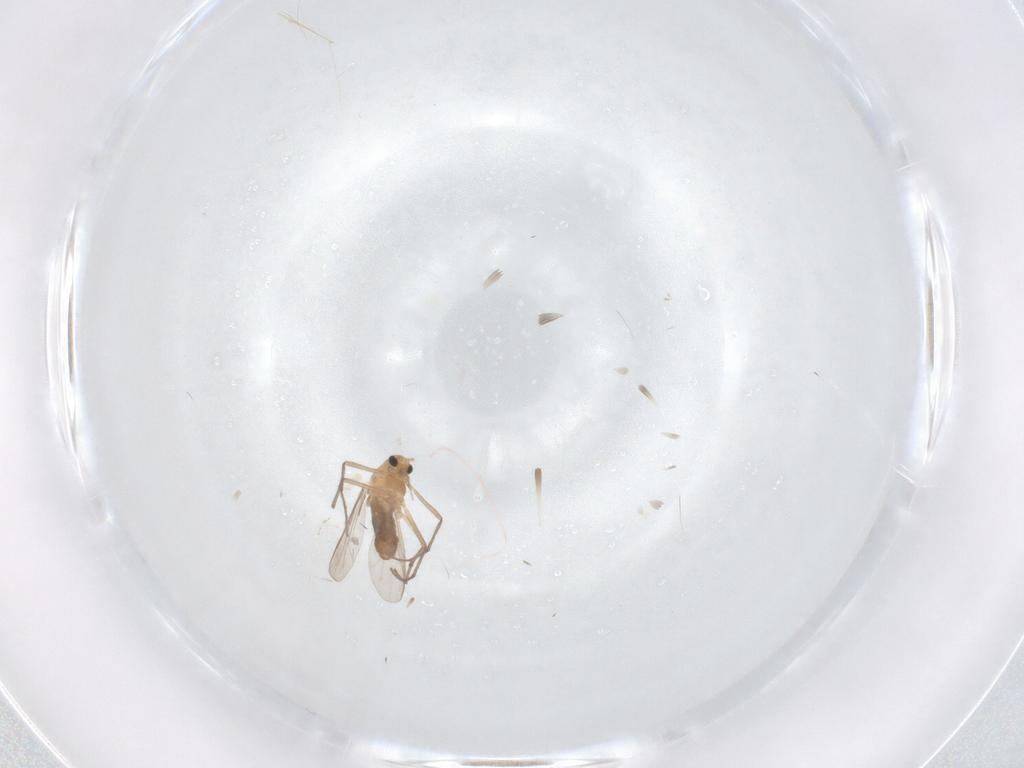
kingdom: Animalia
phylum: Arthropoda
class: Insecta
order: Diptera
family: Chironomidae
